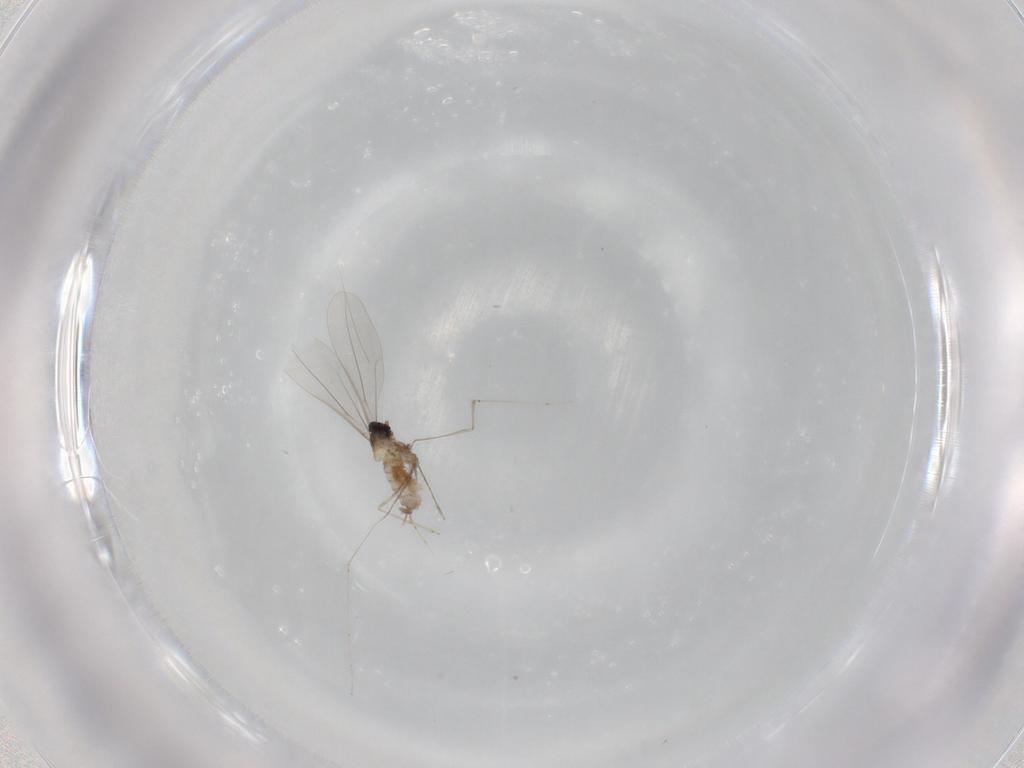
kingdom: Animalia
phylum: Arthropoda
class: Insecta
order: Diptera
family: Cecidomyiidae
